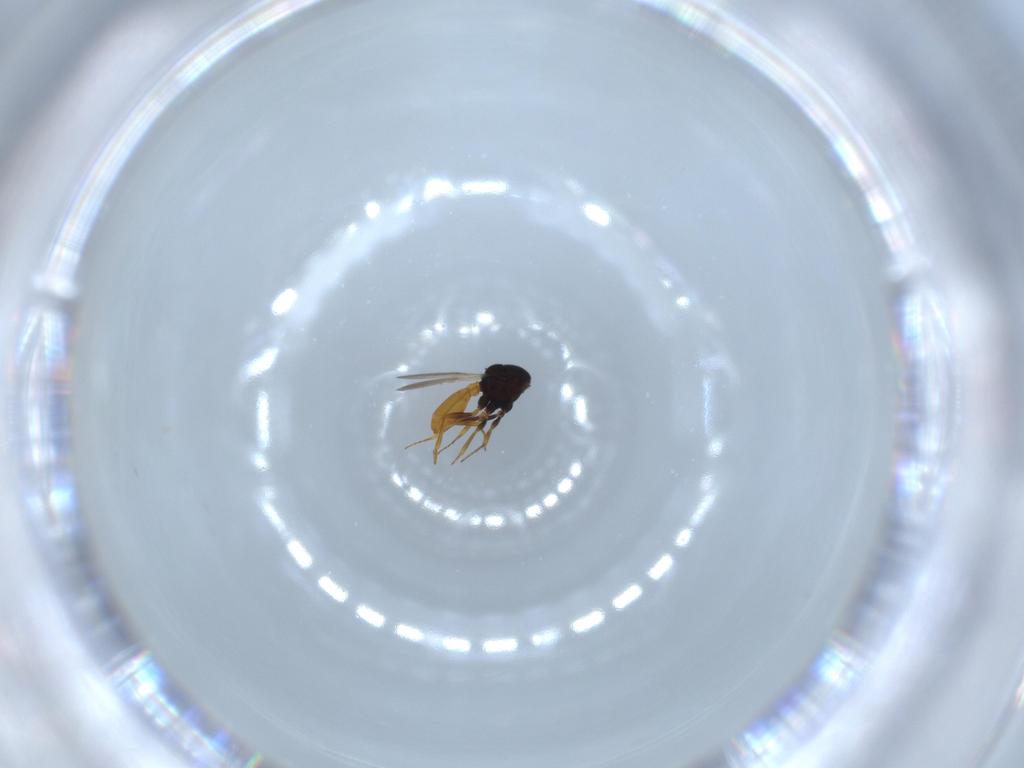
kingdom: Animalia
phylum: Arthropoda
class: Insecta
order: Hymenoptera
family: Scelionidae
